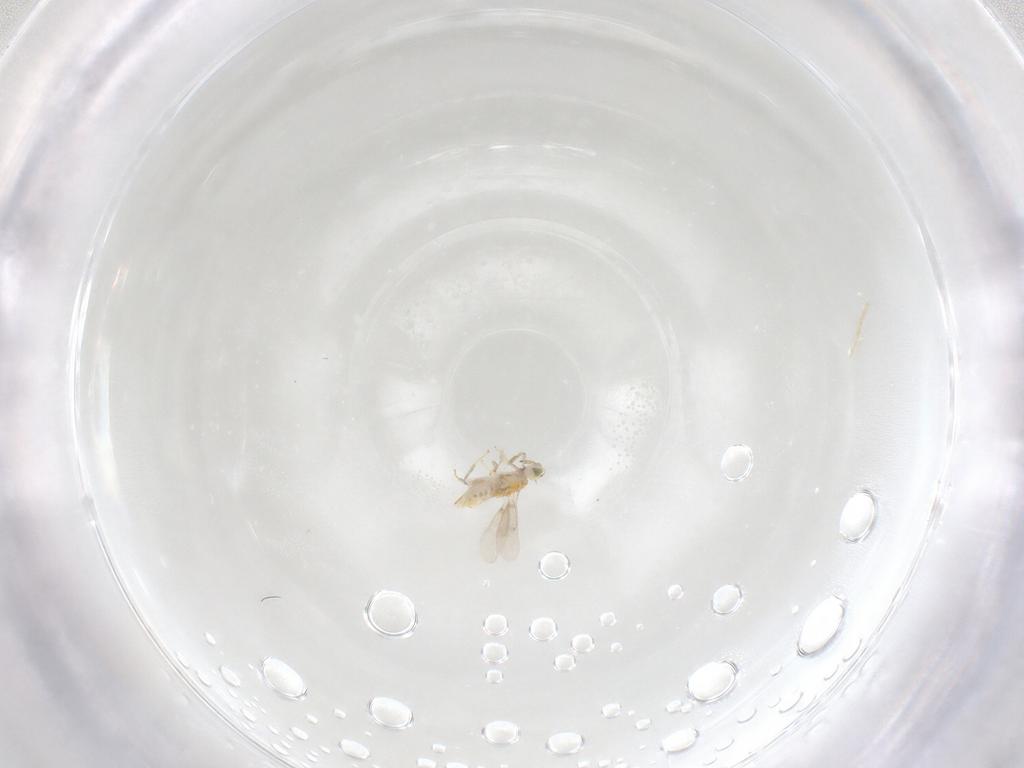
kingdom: Animalia
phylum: Arthropoda
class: Insecta
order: Hymenoptera
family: Aphelinidae
